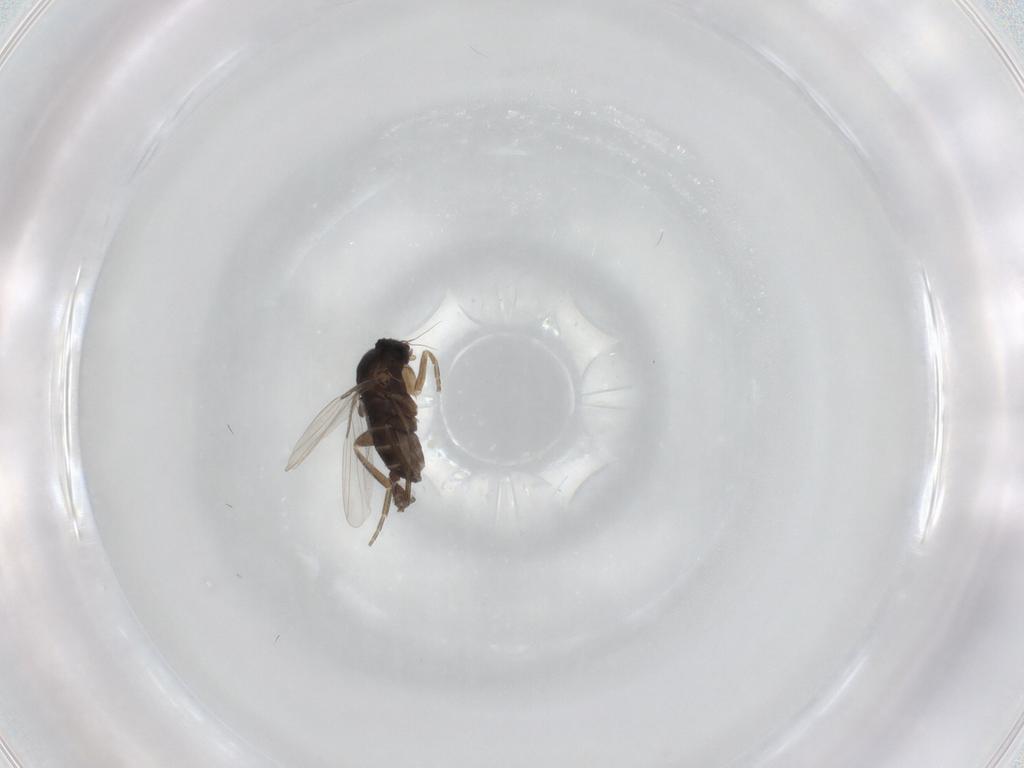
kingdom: Animalia
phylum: Arthropoda
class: Insecta
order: Diptera
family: Scathophagidae
